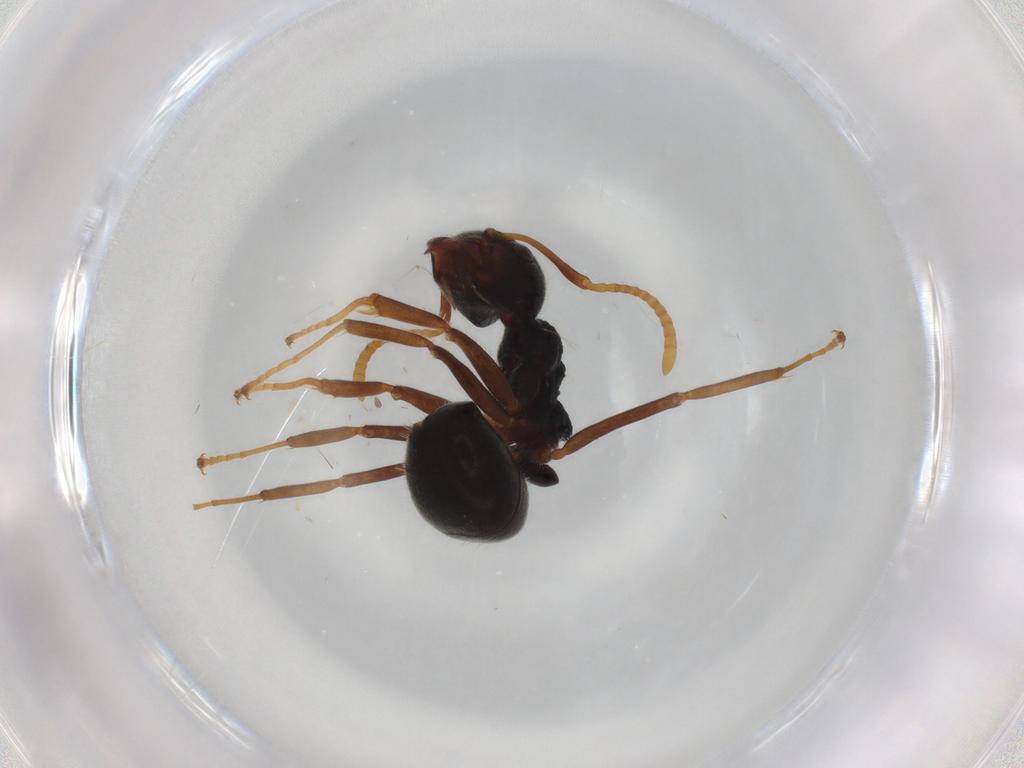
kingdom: Animalia
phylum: Arthropoda
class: Insecta
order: Hymenoptera
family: Formicidae
